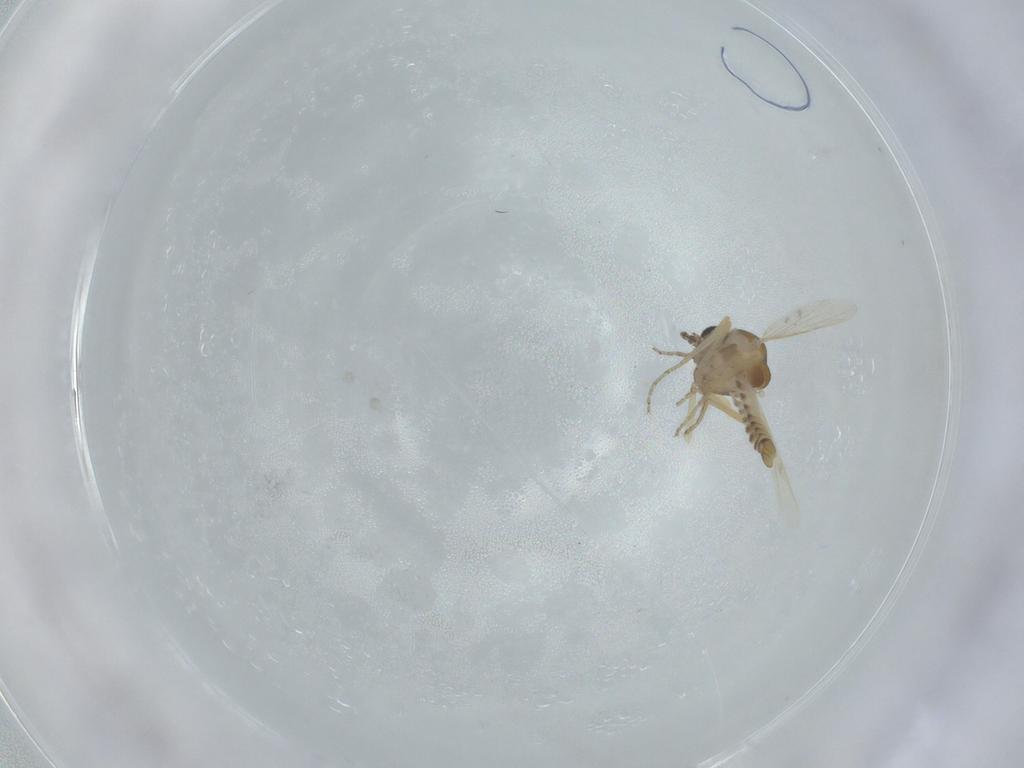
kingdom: Animalia
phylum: Arthropoda
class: Insecta
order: Diptera
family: Ceratopogonidae
